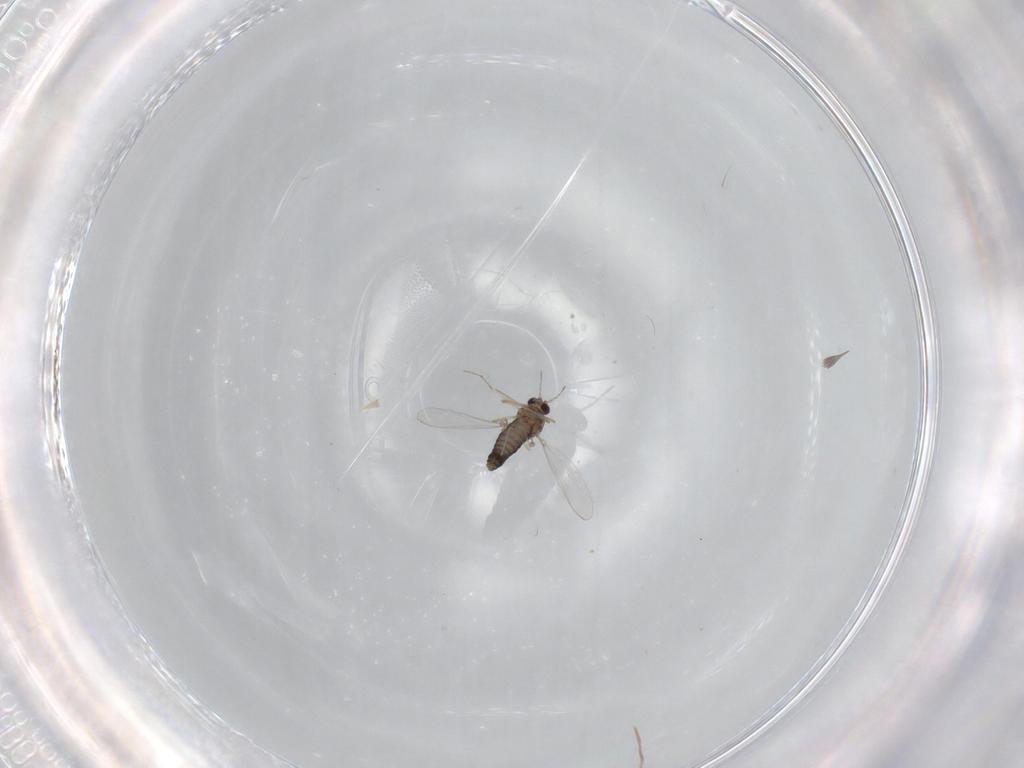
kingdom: Animalia
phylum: Arthropoda
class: Insecta
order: Diptera
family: Chironomidae
